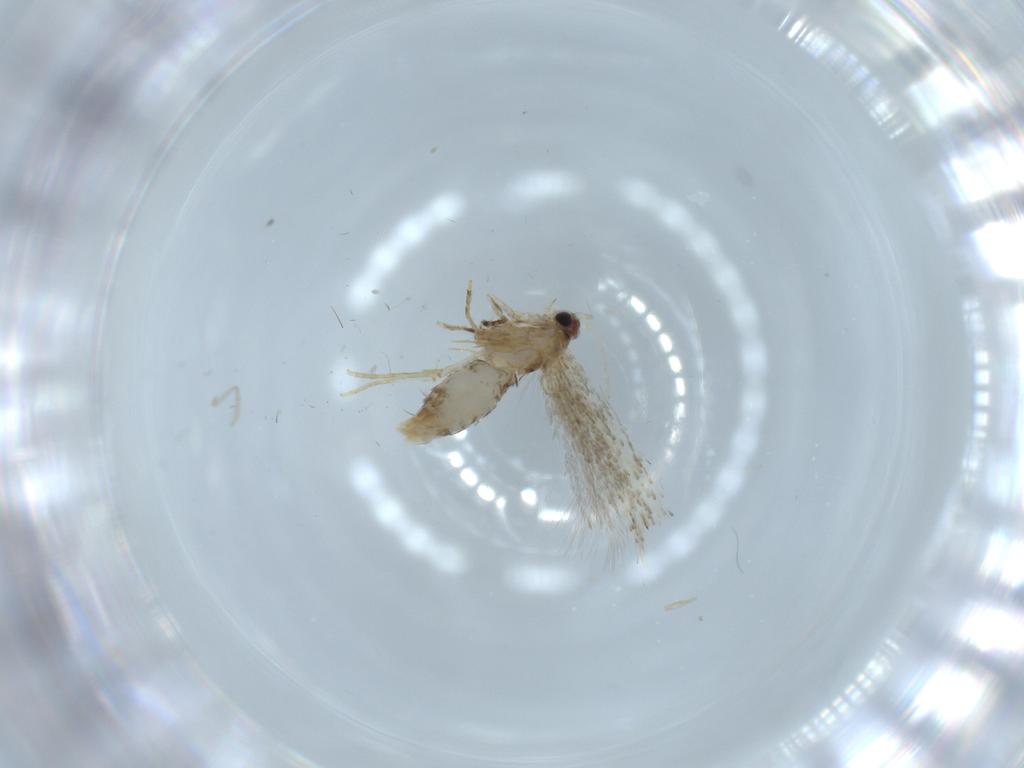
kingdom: Animalia
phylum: Arthropoda
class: Insecta
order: Lepidoptera
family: Tineidae
